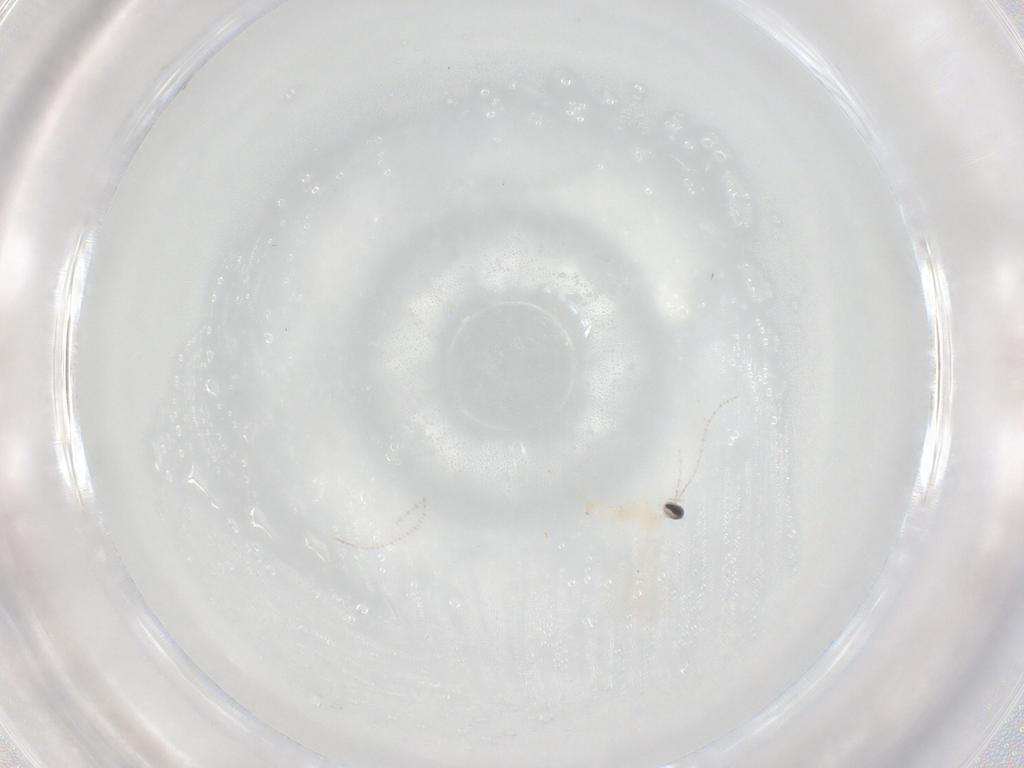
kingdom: Animalia
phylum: Arthropoda
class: Insecta
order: Diptera
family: Cecidomyiidae
